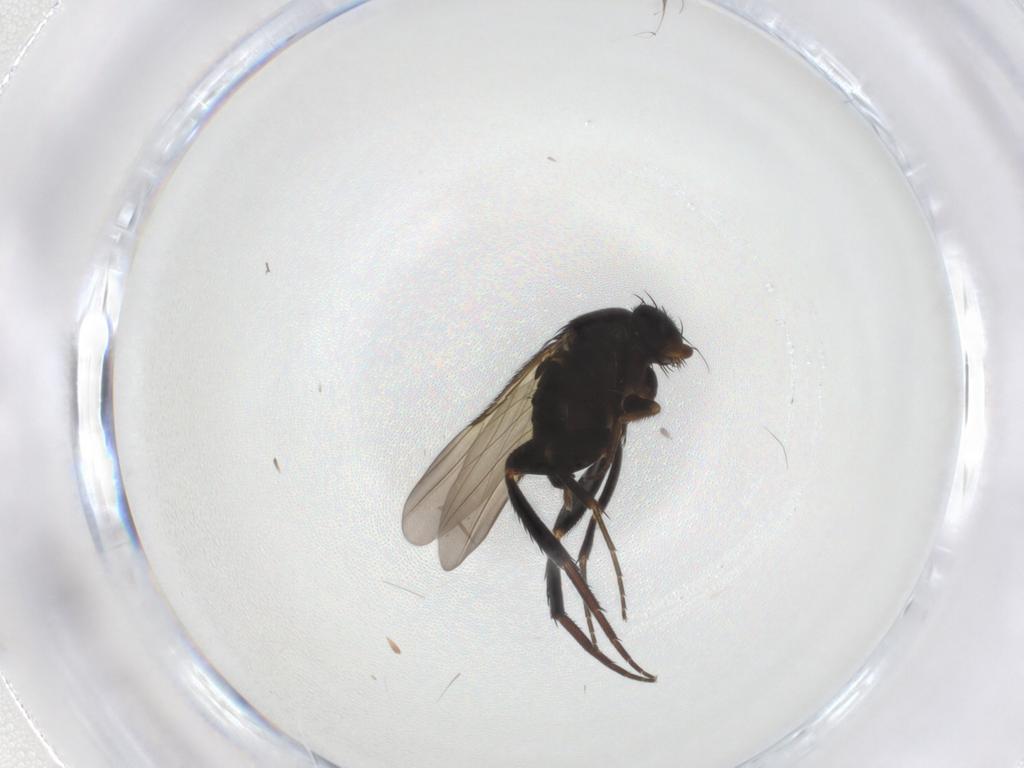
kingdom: Animalia
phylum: Arthropoda
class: Insecta
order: Diptera
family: Phoridae
